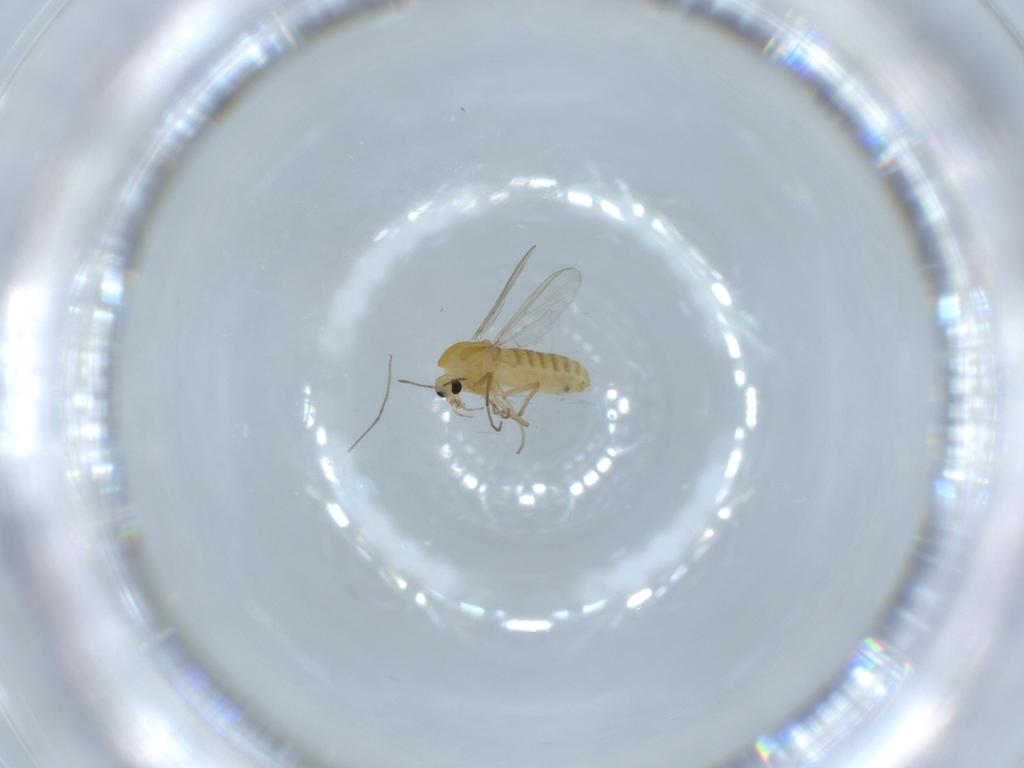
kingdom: Animalia
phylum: Arthropoda
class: Insecta
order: Diptera
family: Chironomidae
